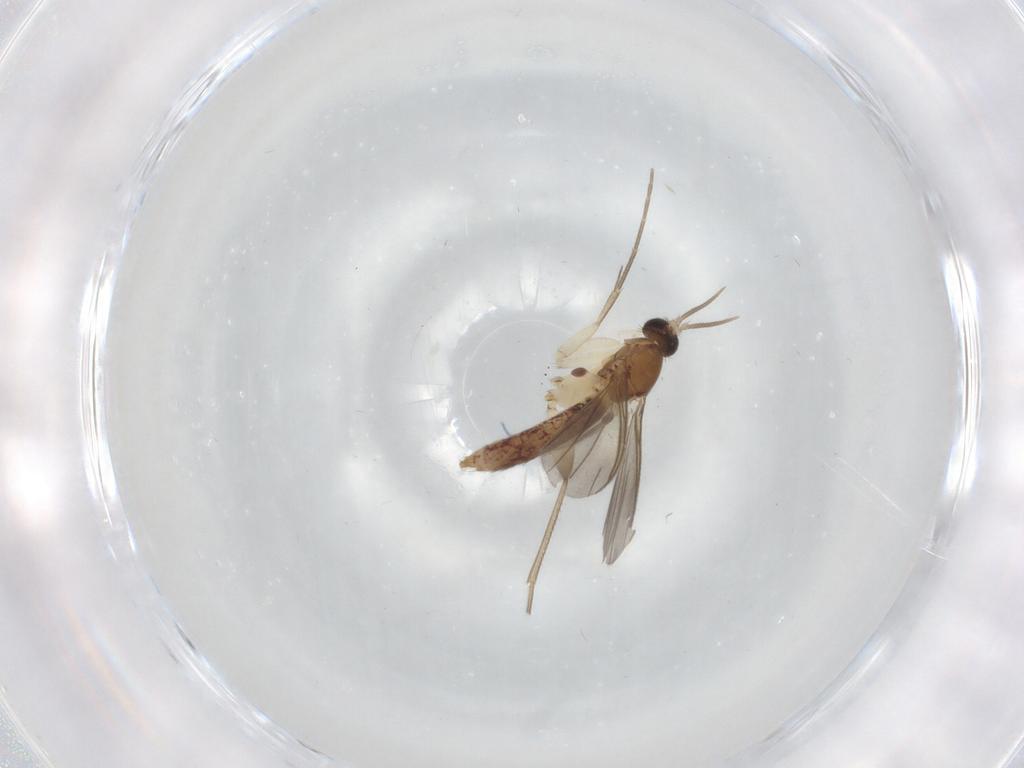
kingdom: Animalia
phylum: Arthropoda
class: Insecta
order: Diptera
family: Mycetophilidae
